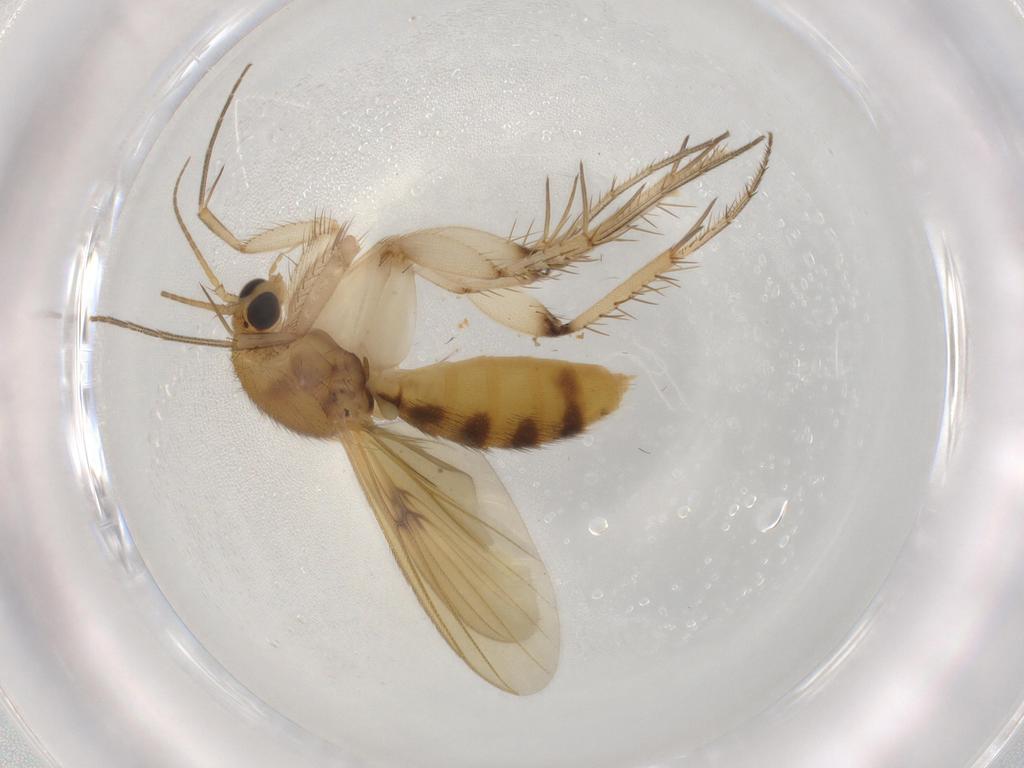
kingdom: Animalia
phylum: Arthropoda
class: Insecta
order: Diptera
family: Mycetophilidae
